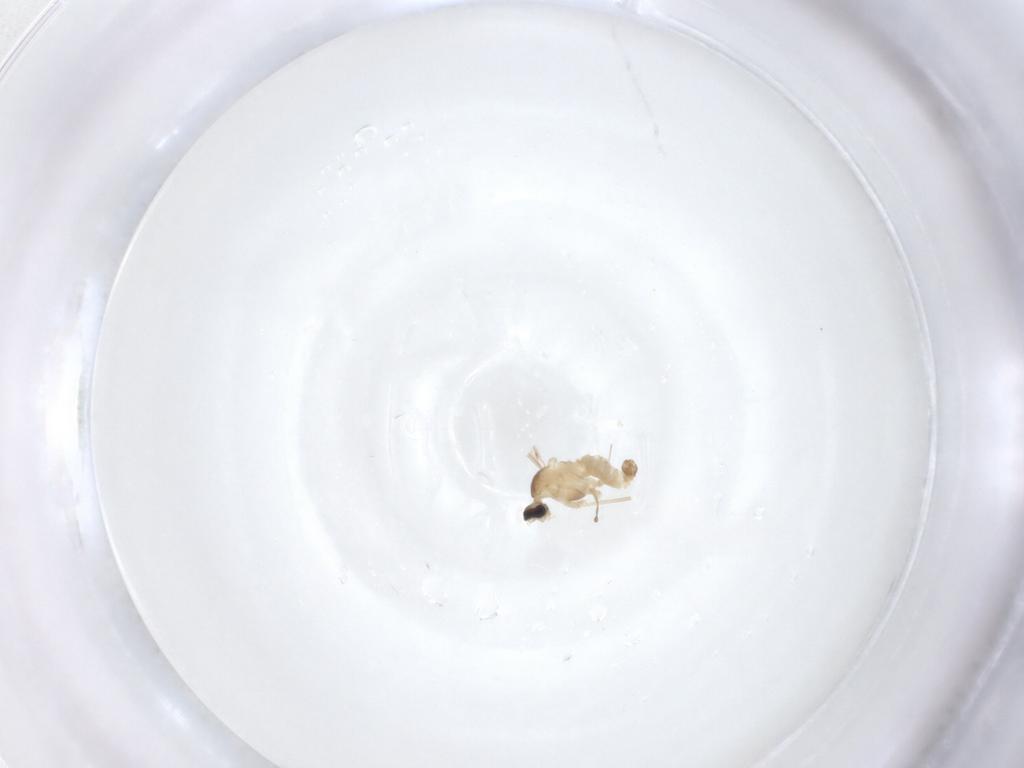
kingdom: Animalia
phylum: Arthropoda
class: Insecta
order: Diptera
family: Cecidomyiidae
